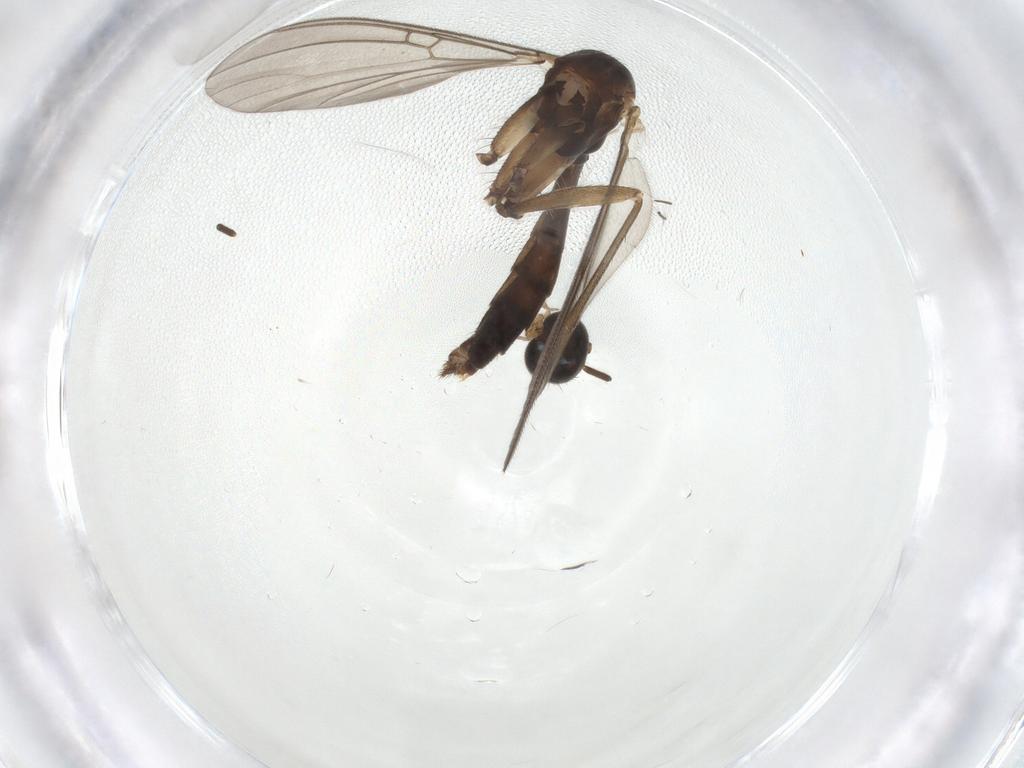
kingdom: Animalia
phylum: Arthropoda
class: Insecta
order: Diptera
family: Mycetophilidae
